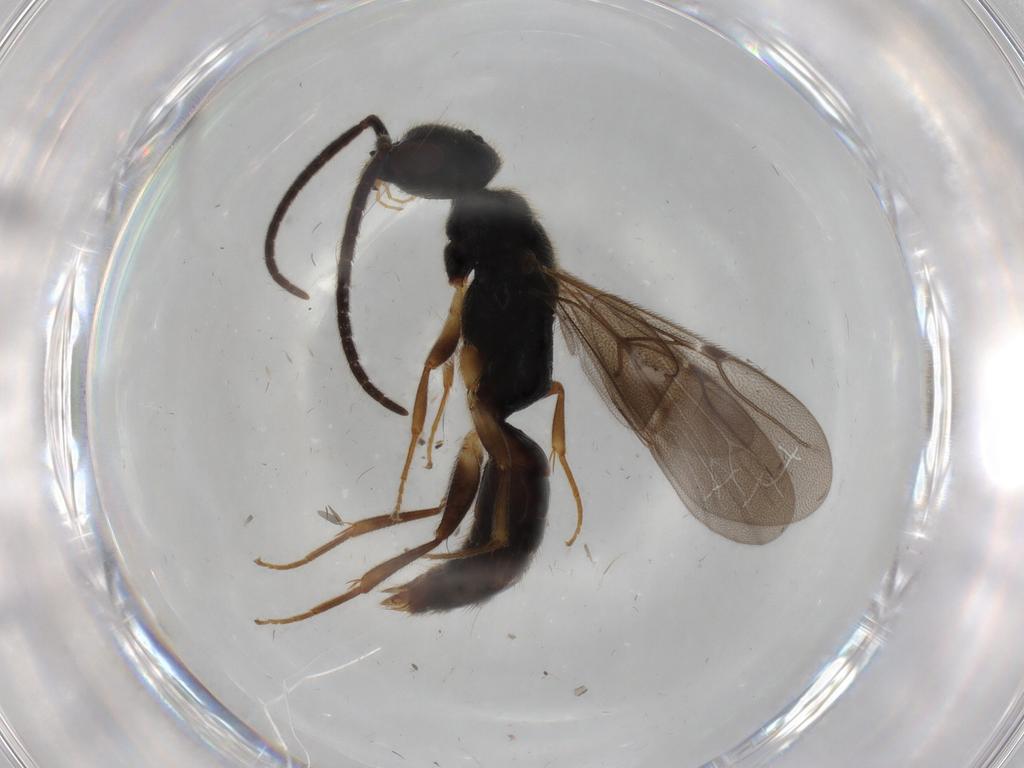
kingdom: Animalia
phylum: Arthropoda
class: Insecta
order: Hymenoptera
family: Bethylidae
